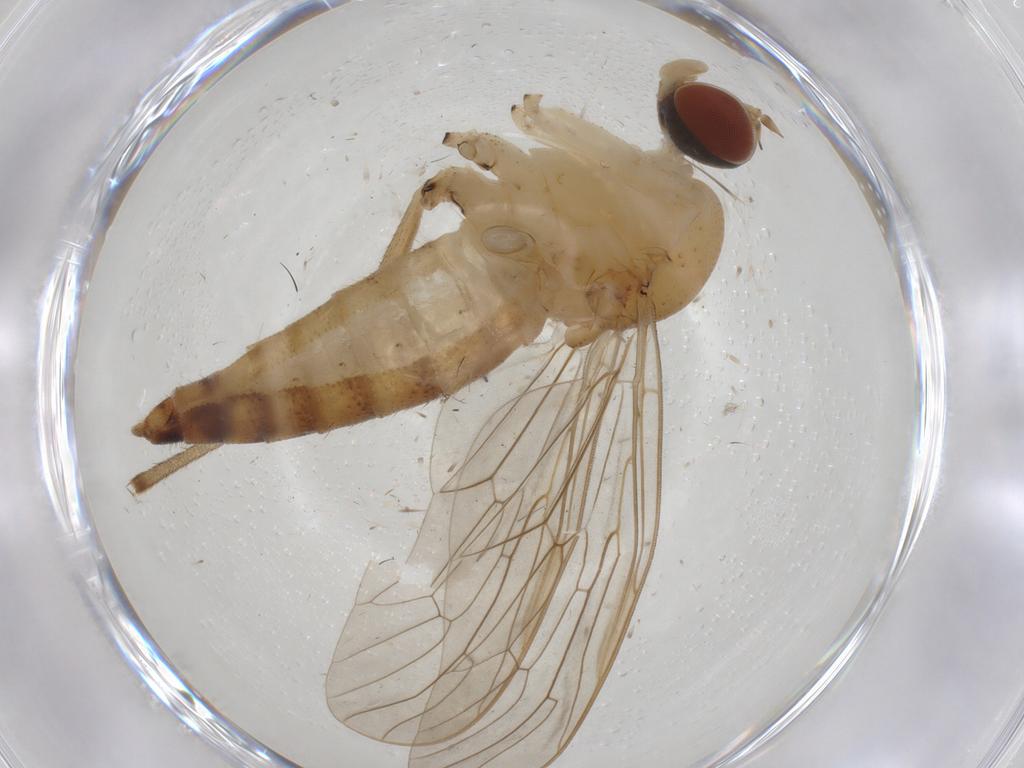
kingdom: Animalia
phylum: Arthropoda
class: Insecta
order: Diptera
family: Apsilocephalidae
